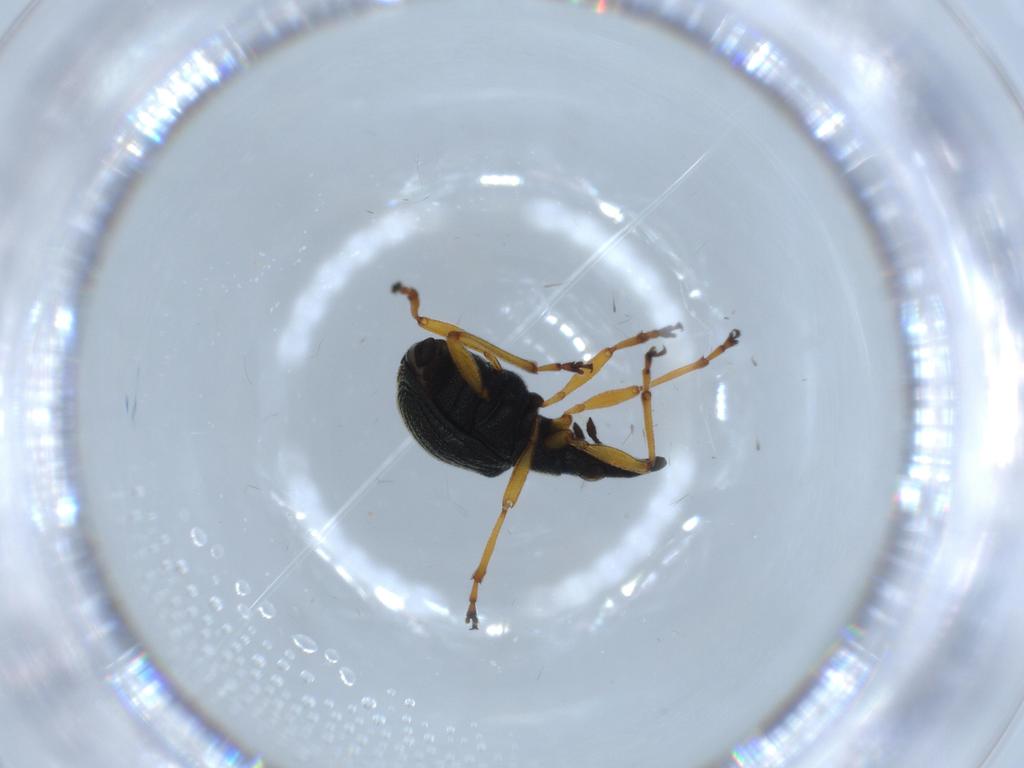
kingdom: Animalia
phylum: Arthropoda
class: Insecta
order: Coleoptera
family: Brentidae
